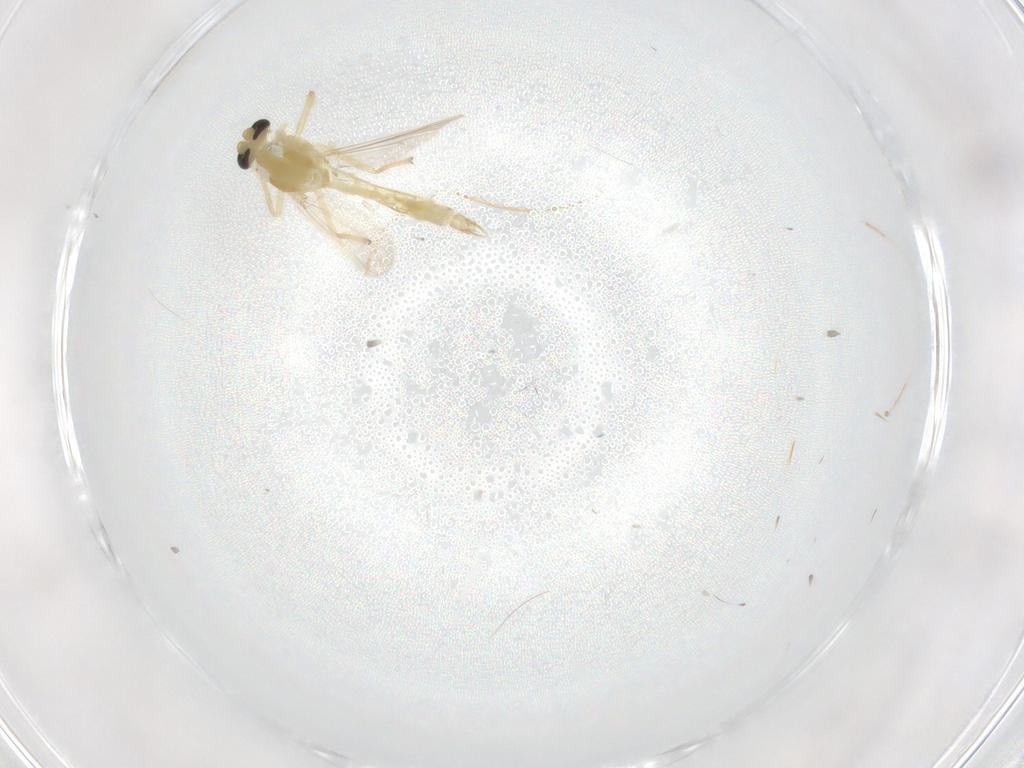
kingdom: Animalia
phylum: Arthropoda
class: Insecta
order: Diptera
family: Chironomidae
